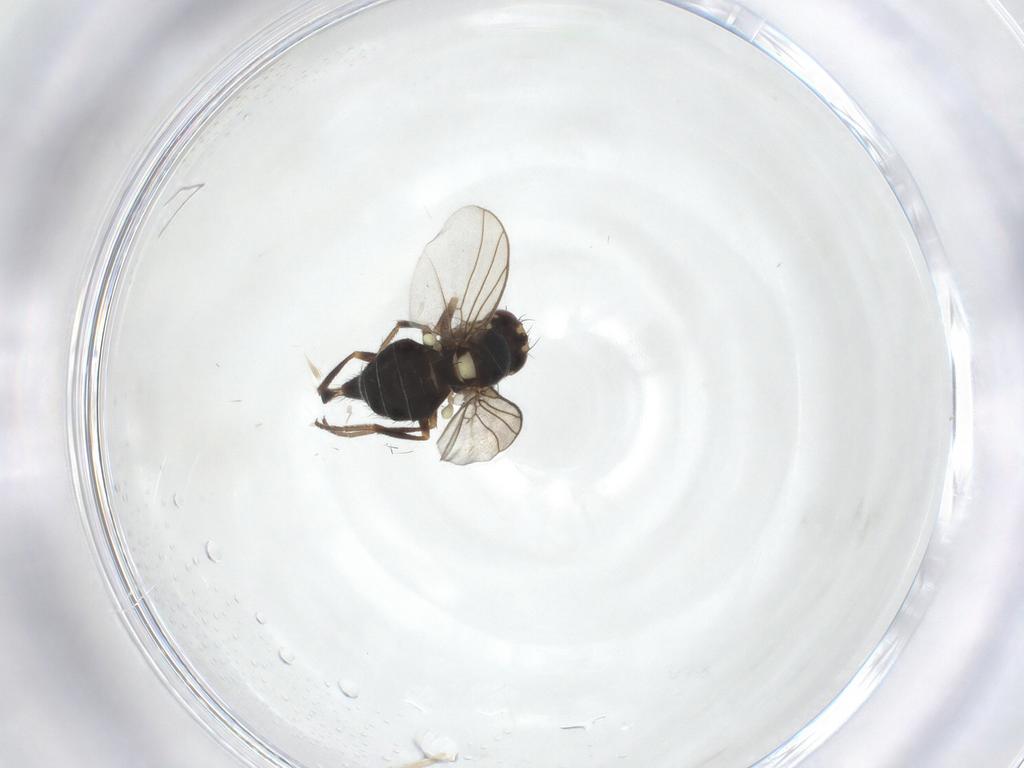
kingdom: Animalia
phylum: Arthropoda
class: Insecta
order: Diptera
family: Agromyzidae
